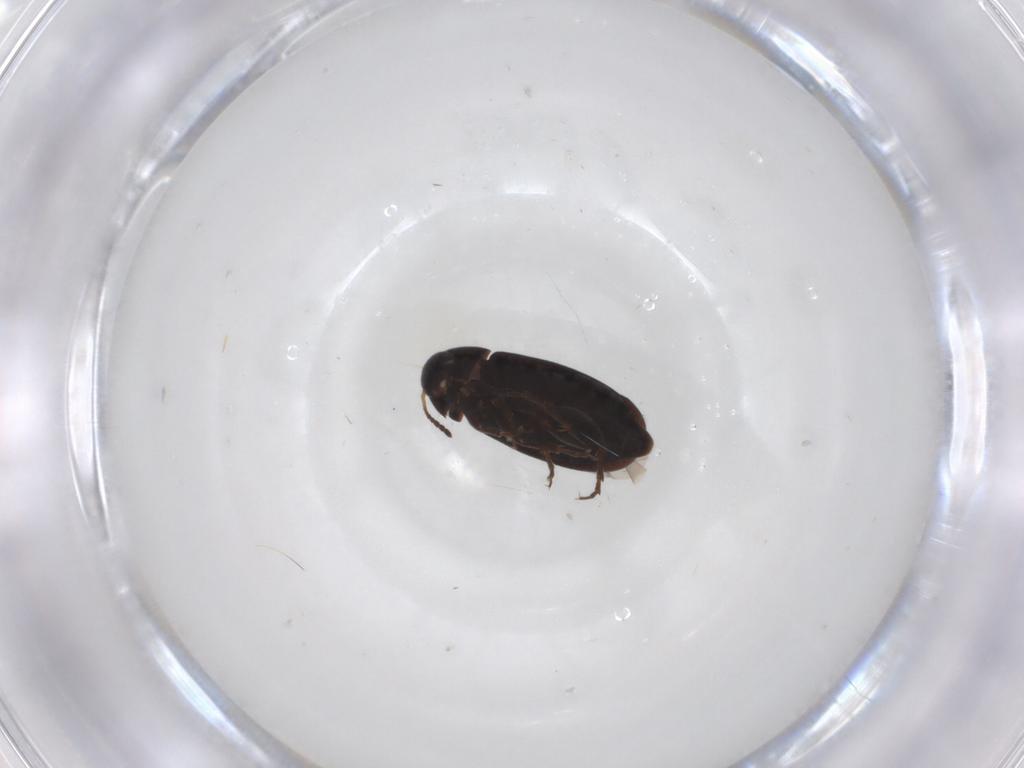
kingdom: Animalia
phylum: Arthropoda
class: Insecta
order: Coleoptera
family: Scraptiidae
